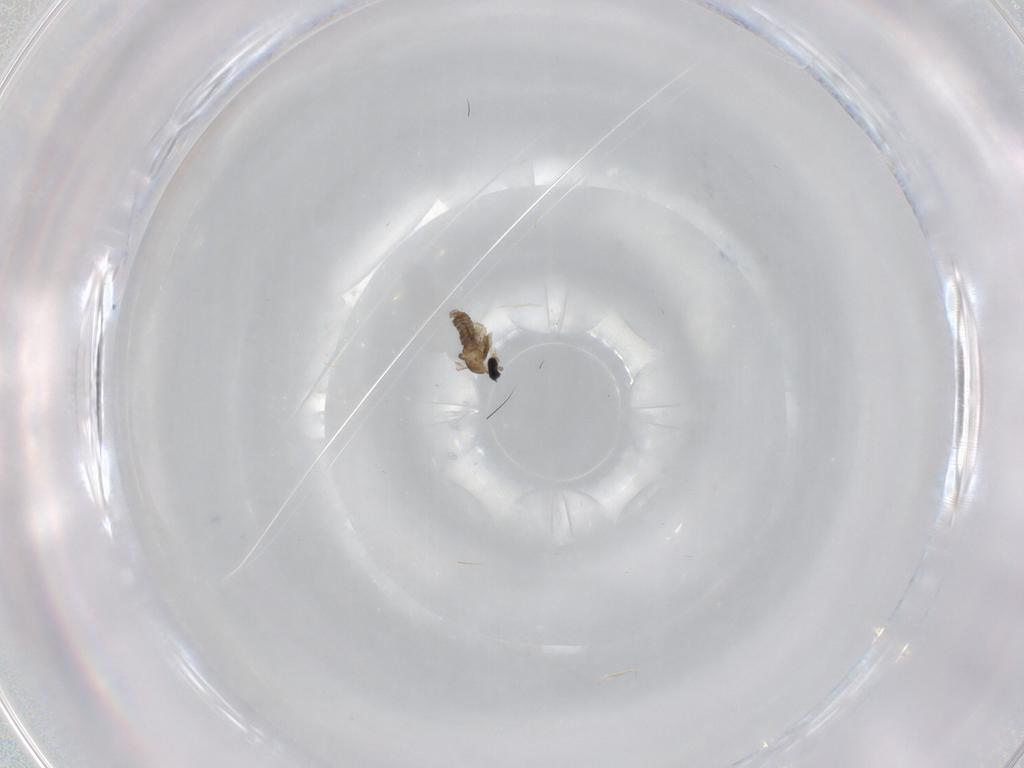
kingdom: Animalia
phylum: Arthropoda
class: Insecta
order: Diptera
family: Cecidomyiidae
